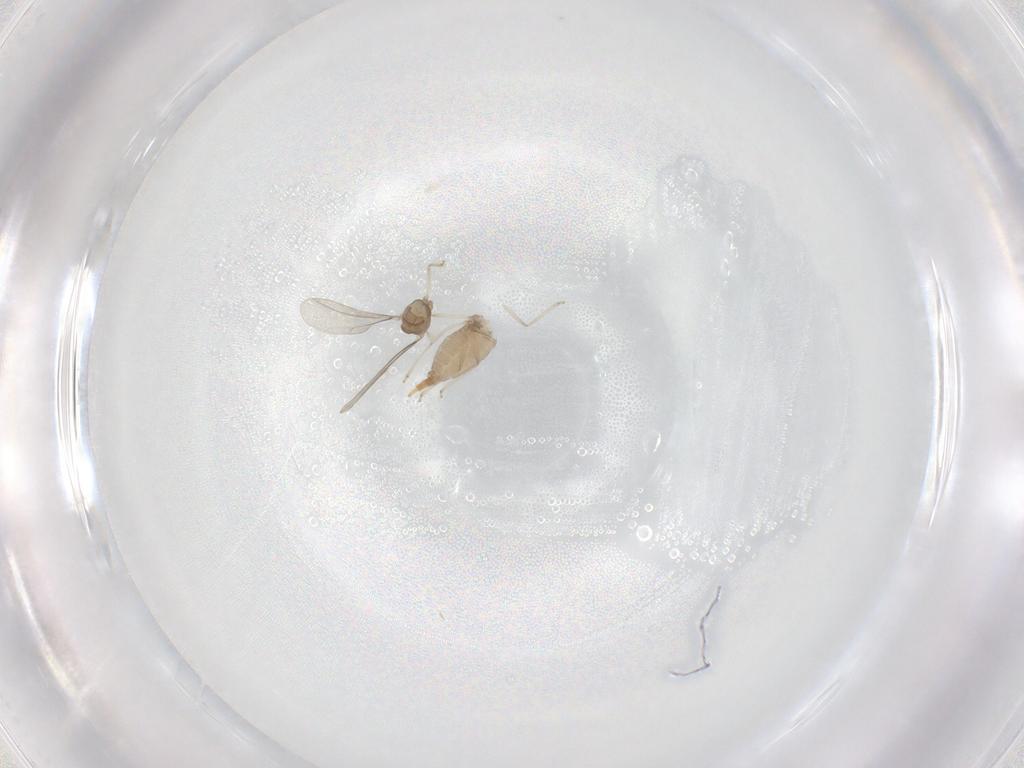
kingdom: Animalia
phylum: Arthropoda
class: Insecta
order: Diptera
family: Cecidomyiidae
